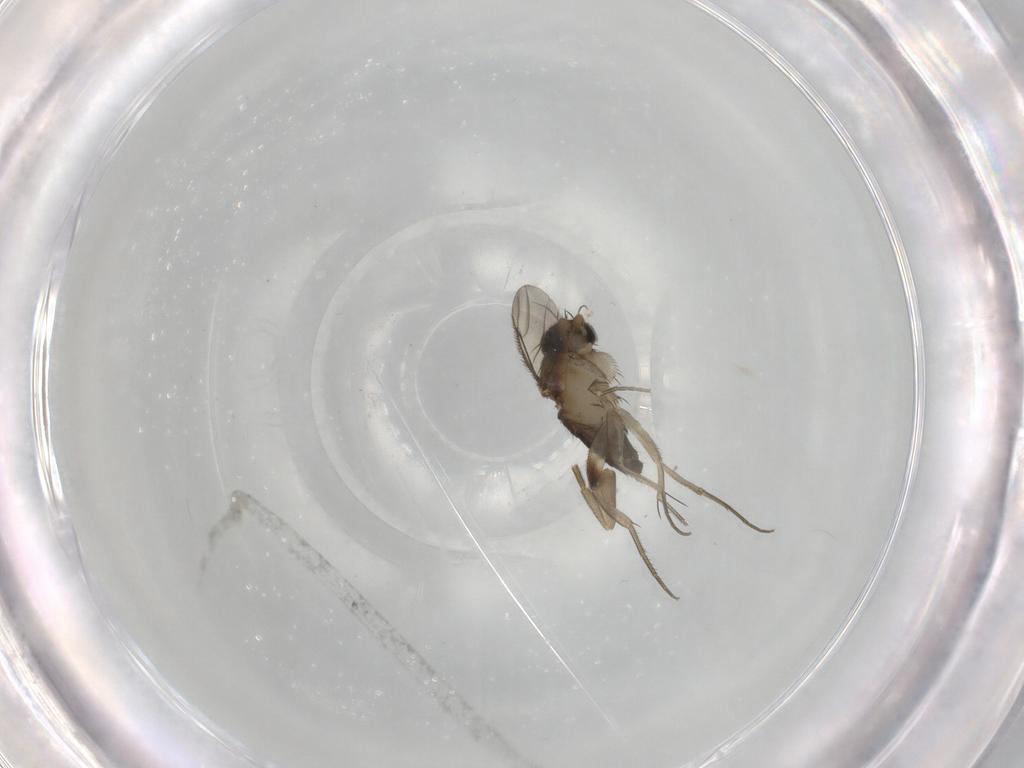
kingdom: Animalia
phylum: Arthropoda
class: Insecta
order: Diptera
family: Phoridae
